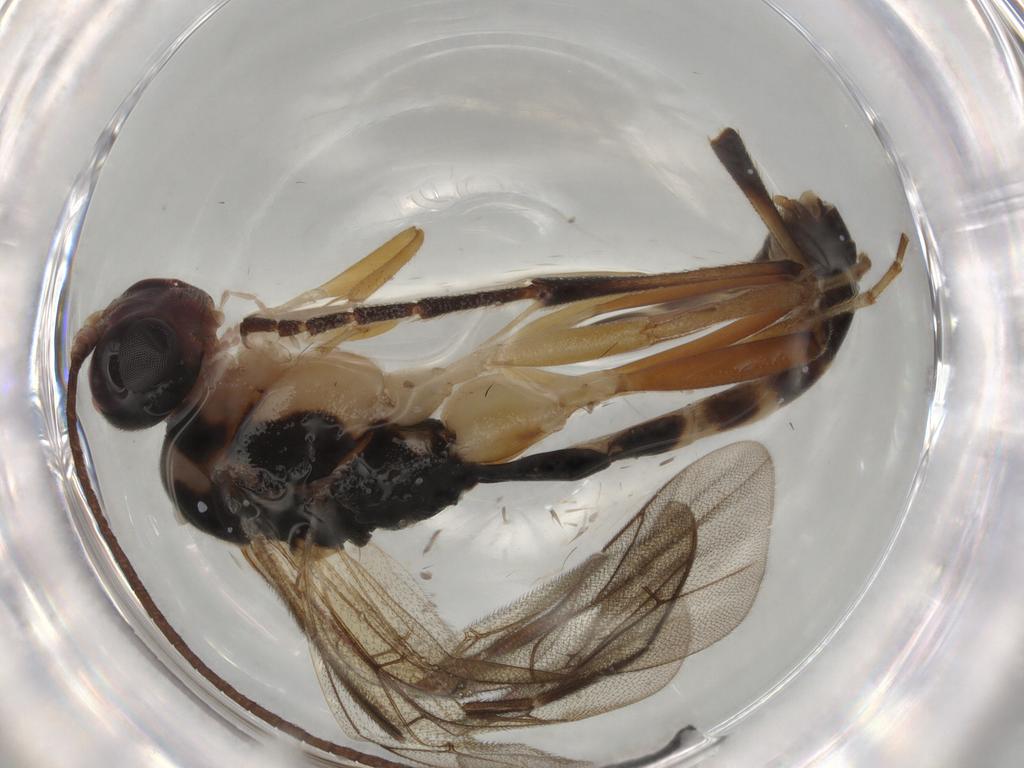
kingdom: Animalia
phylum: Arthropoda
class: Insecta
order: Hymenoptera
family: Ichneumonidae
